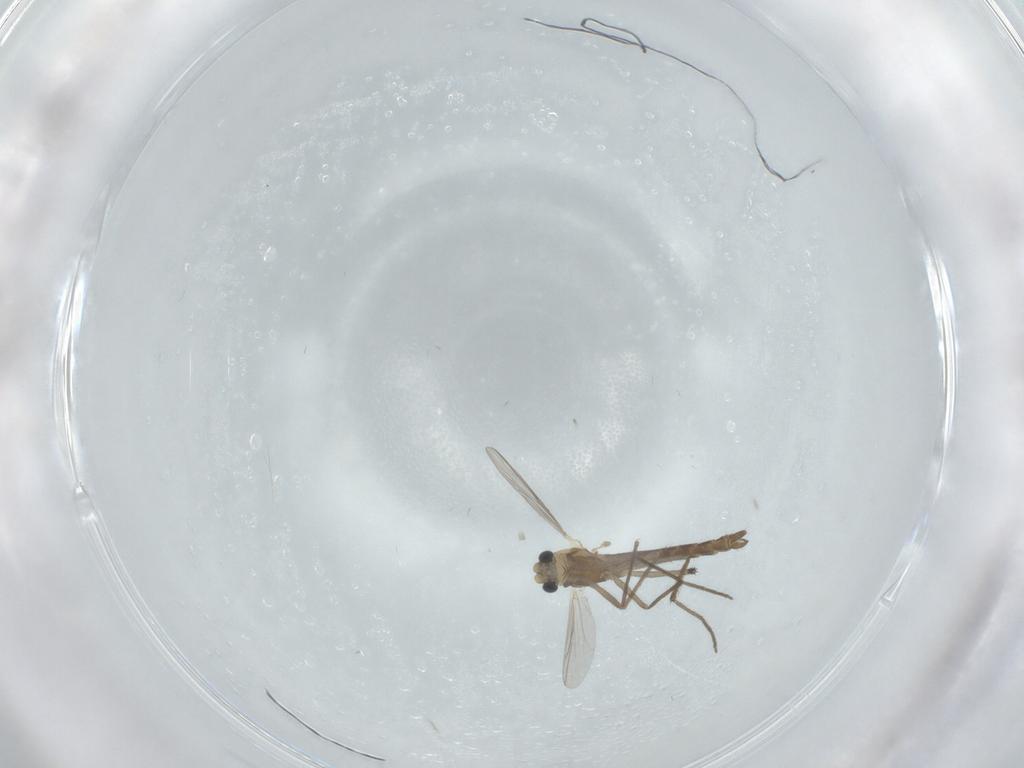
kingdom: Animalia
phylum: Arthropoda
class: Insecta
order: Diptera
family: Chironomidae
